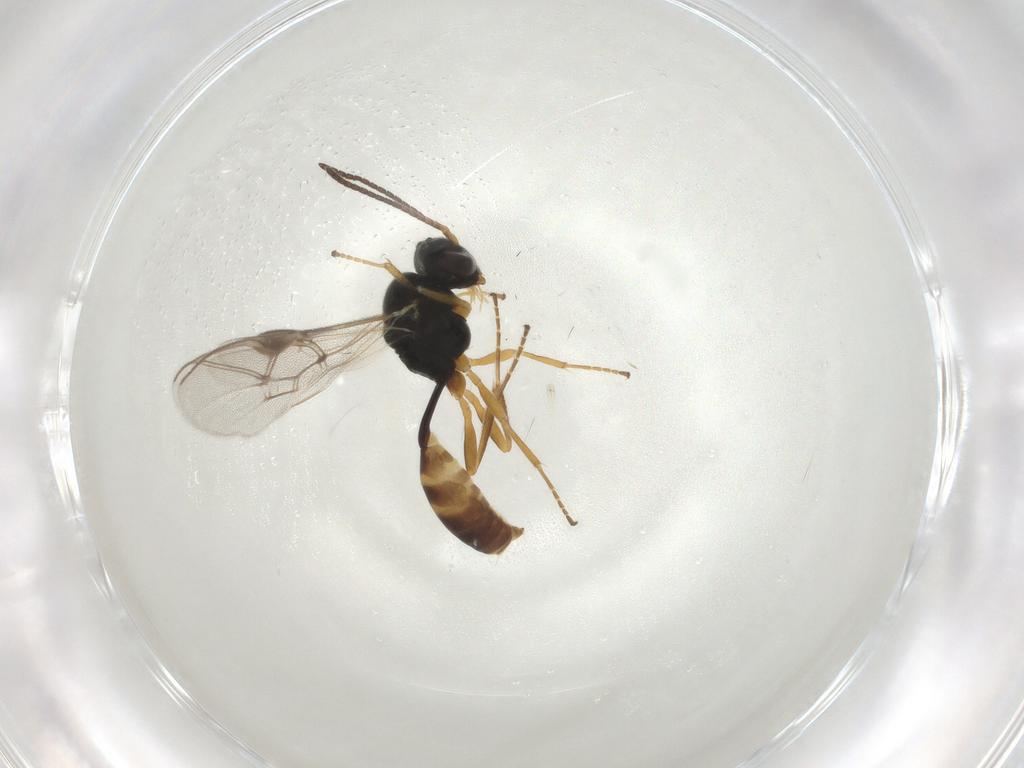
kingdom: Animalia
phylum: Arthropoda
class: Insecta
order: Hymenoptera
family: Ichneumonidae
